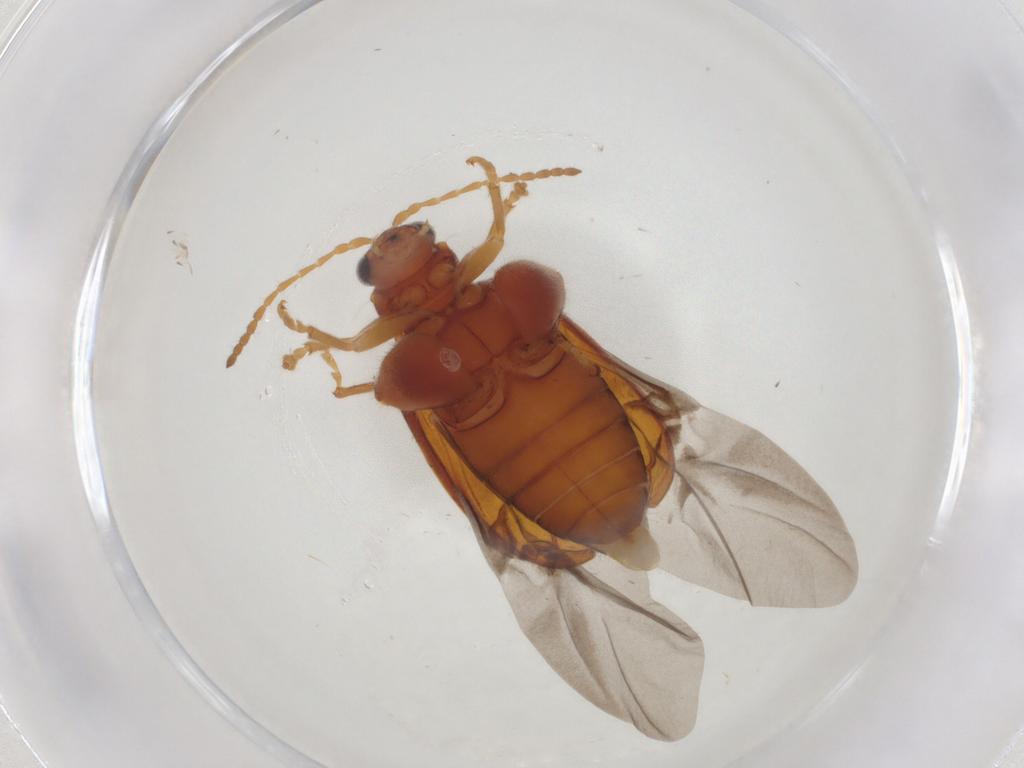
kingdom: Animalia
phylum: Arthropoda
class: Insecta
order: Coleoptera
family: Chrysomelidae
